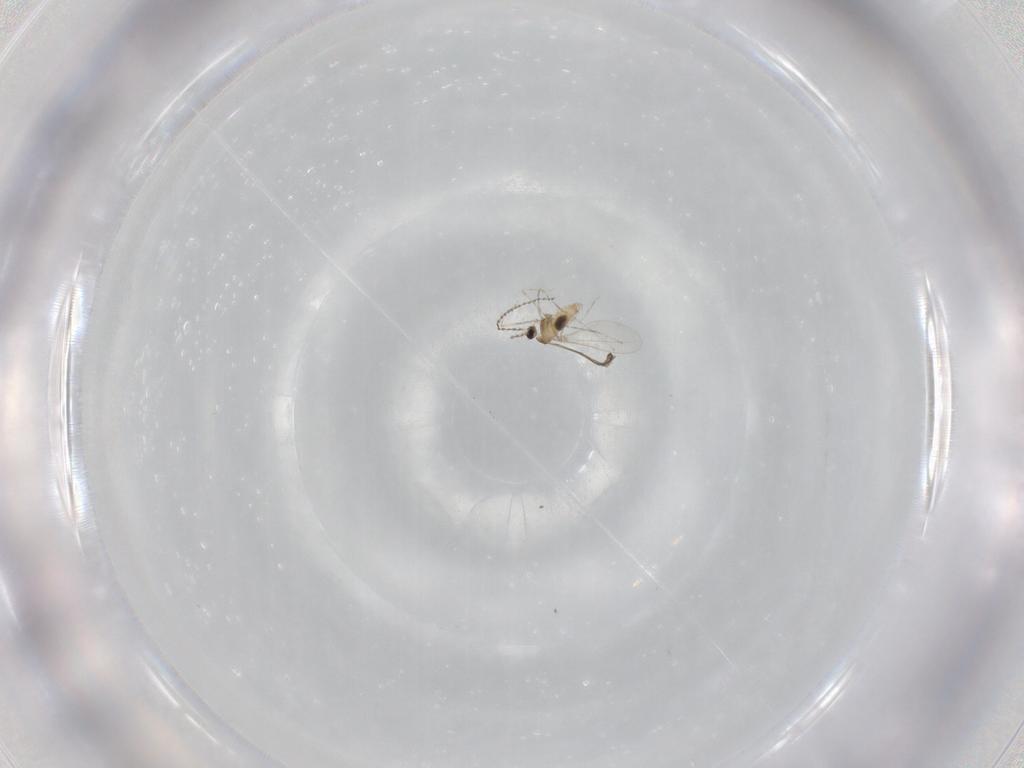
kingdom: Animalia
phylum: Arthropoda
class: Insecta
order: Diptera
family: Cecidomyiidae
